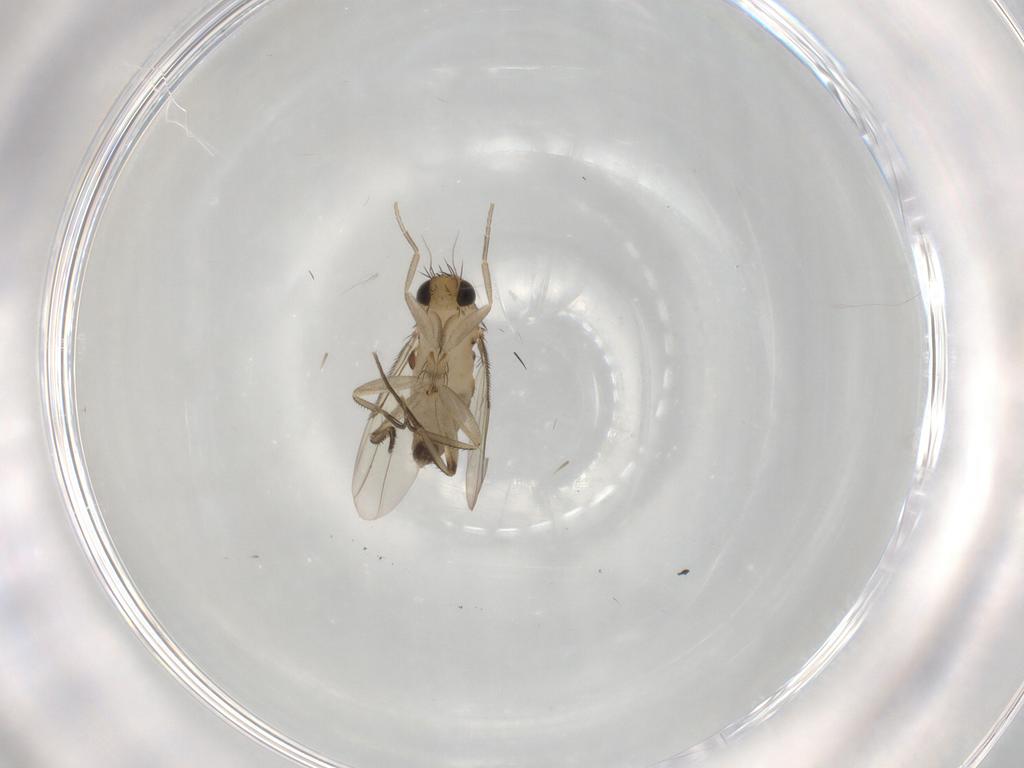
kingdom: Animalia
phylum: Arthropoda
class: Insecta
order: Diptera
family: Phoridae
